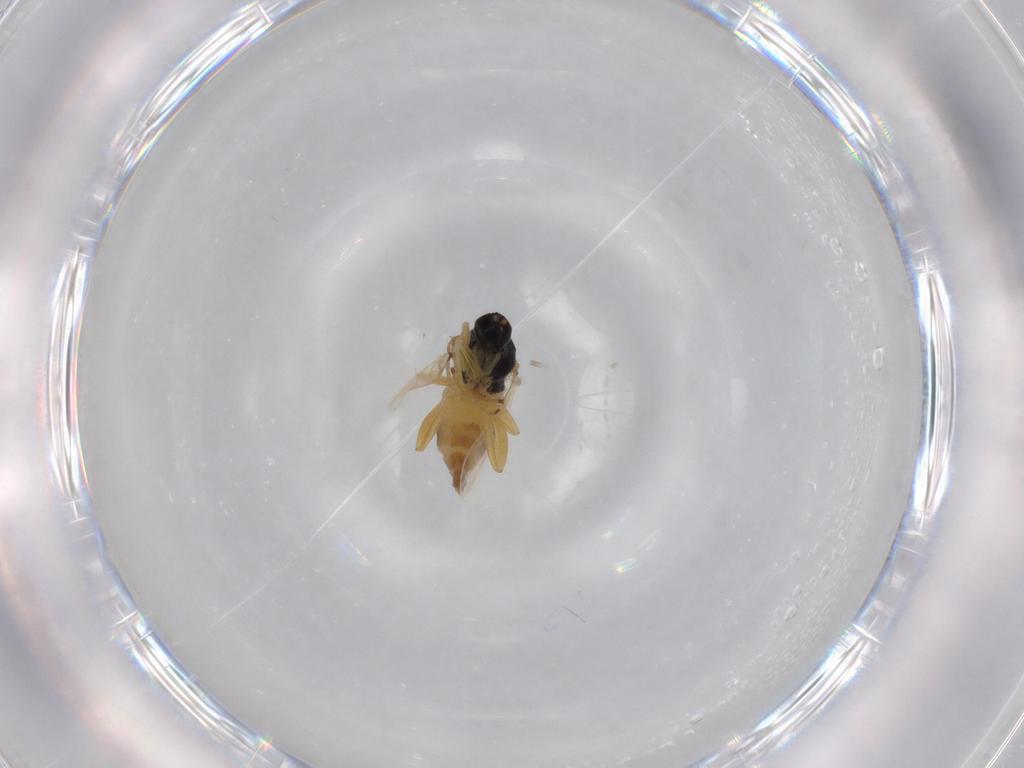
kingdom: Animalia
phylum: Arthropoda
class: Insecta
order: Diptera
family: Hybotidae
